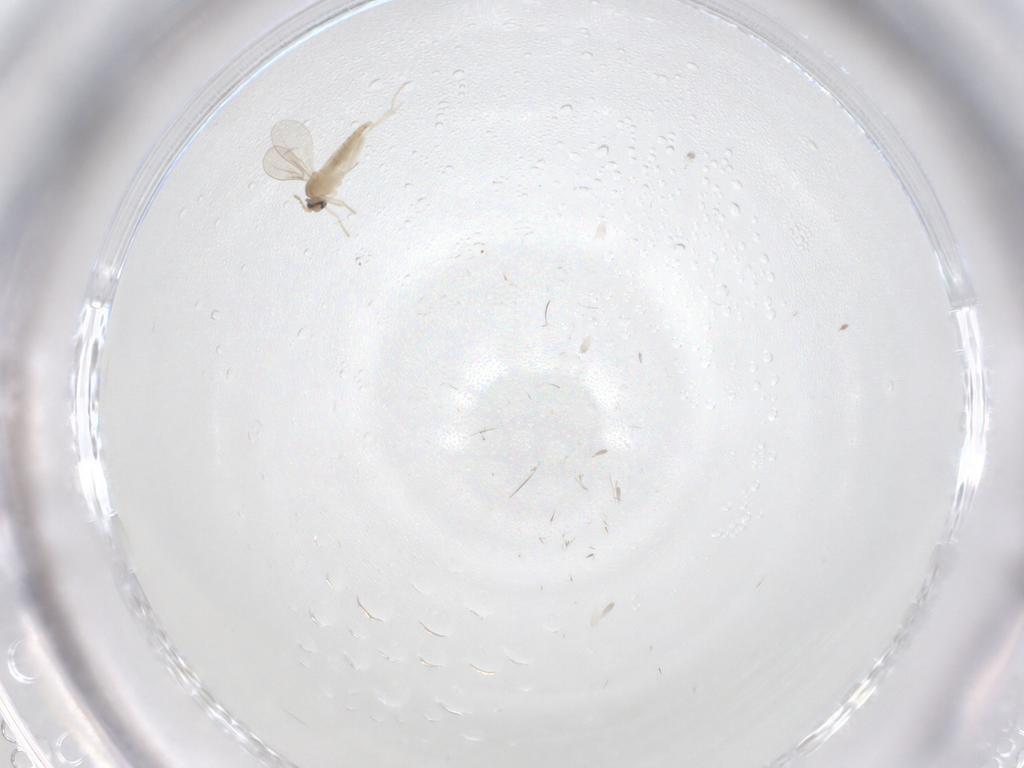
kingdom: Animalia
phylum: Arthropoda
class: Insecta
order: Diptera
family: Cecidomyiidae
